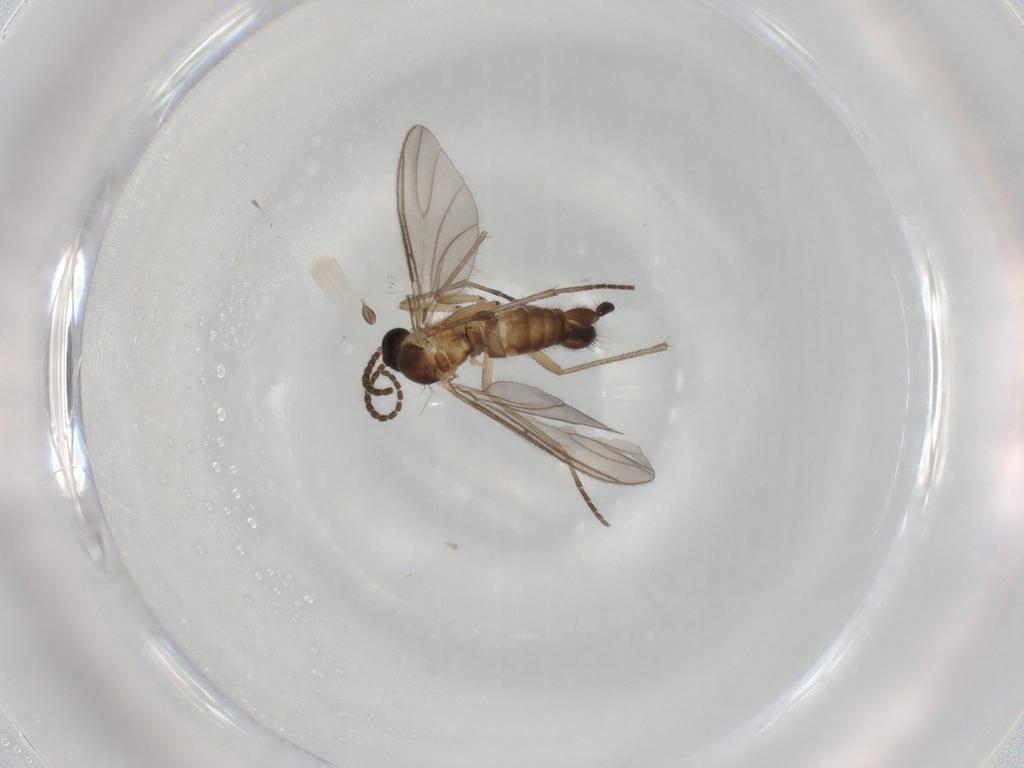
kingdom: Animalia
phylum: Arthropoda
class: Insecta
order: Diptera
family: Sciaridae
